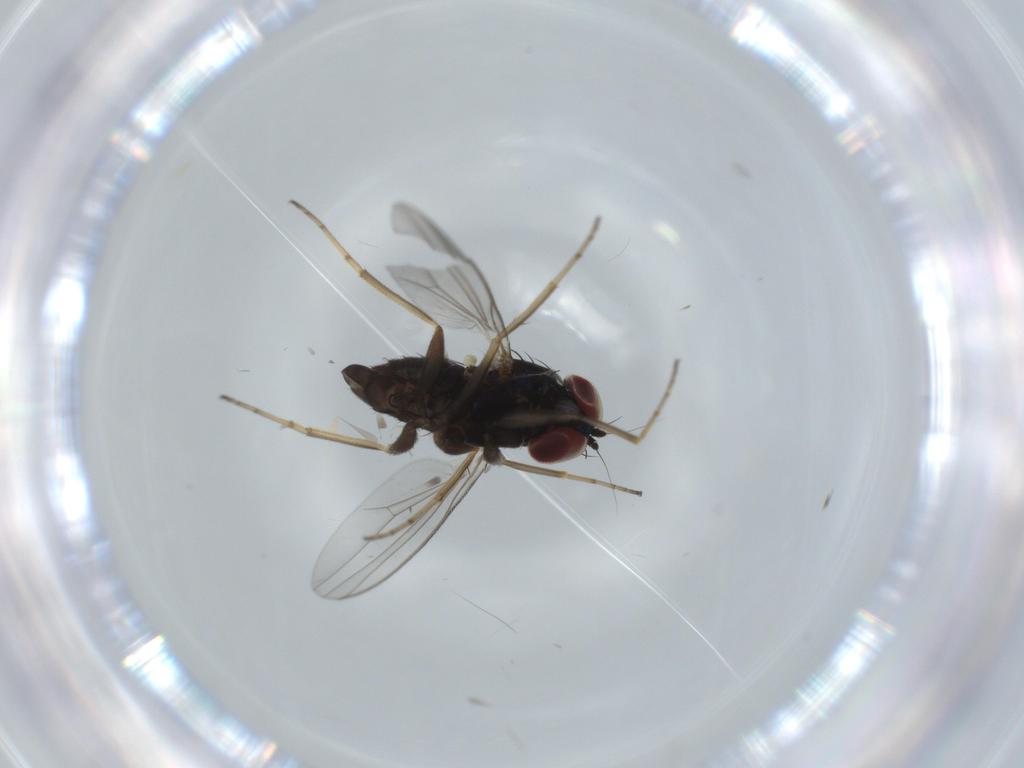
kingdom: Animalia
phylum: Arthropoda
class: Insecta
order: Diptera
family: Dolichopodidae
